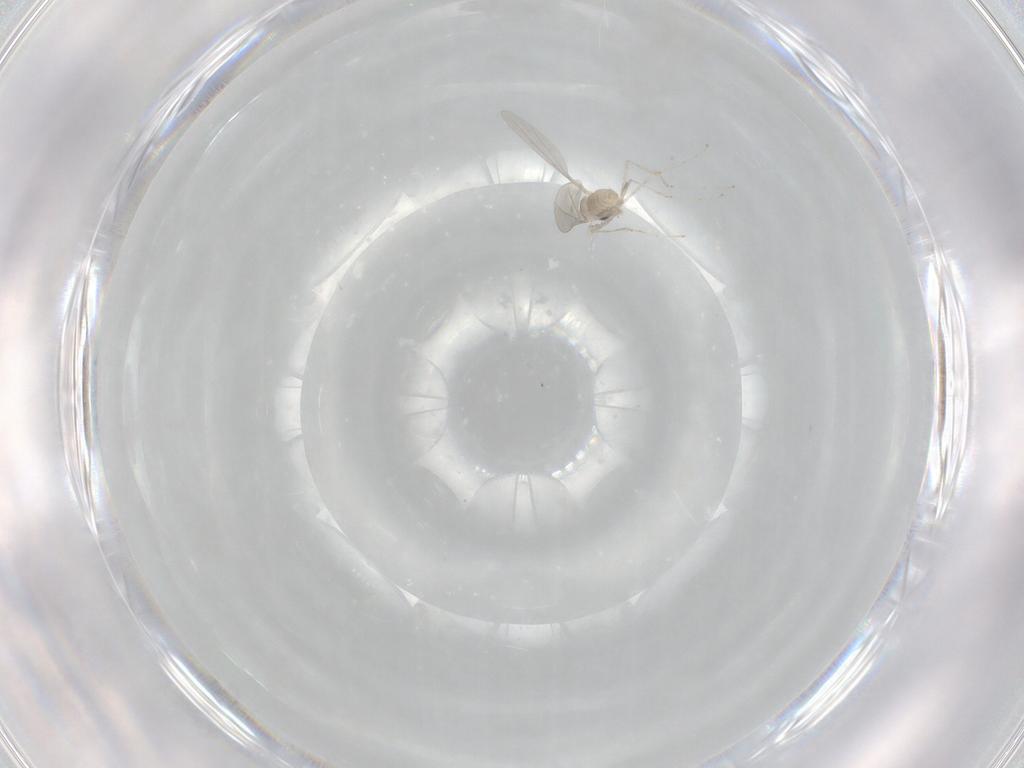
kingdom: Animalia
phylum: Arthropoda
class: Insecta
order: Diptera
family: Cecidomyiidae
